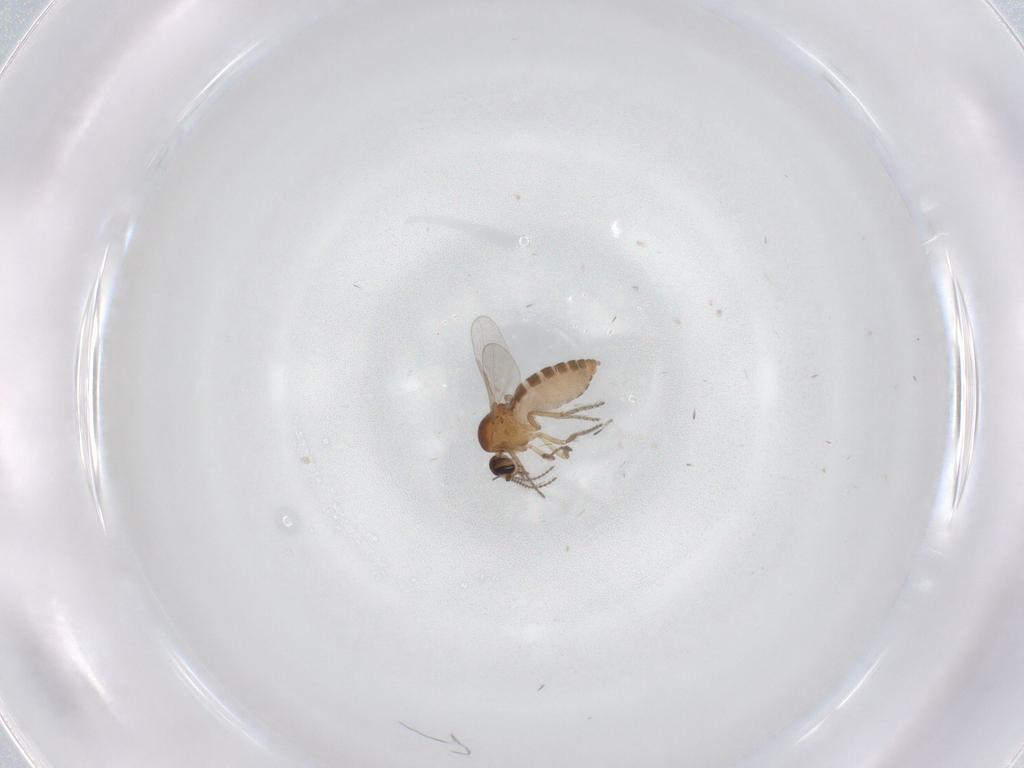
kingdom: Animalia
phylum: Arthropoda
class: Insecta
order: Diptera
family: Ceratopogonidae
